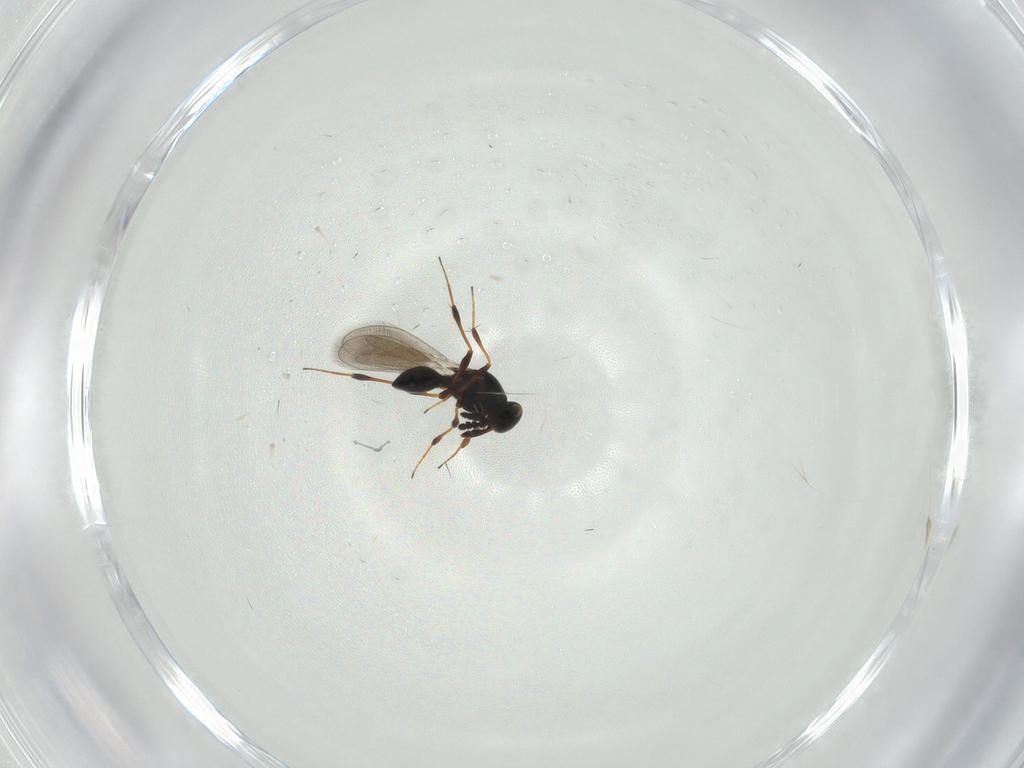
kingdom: Animalia
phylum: Arthropoda
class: Insecta
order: Hymenoptera
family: Platygastridae
